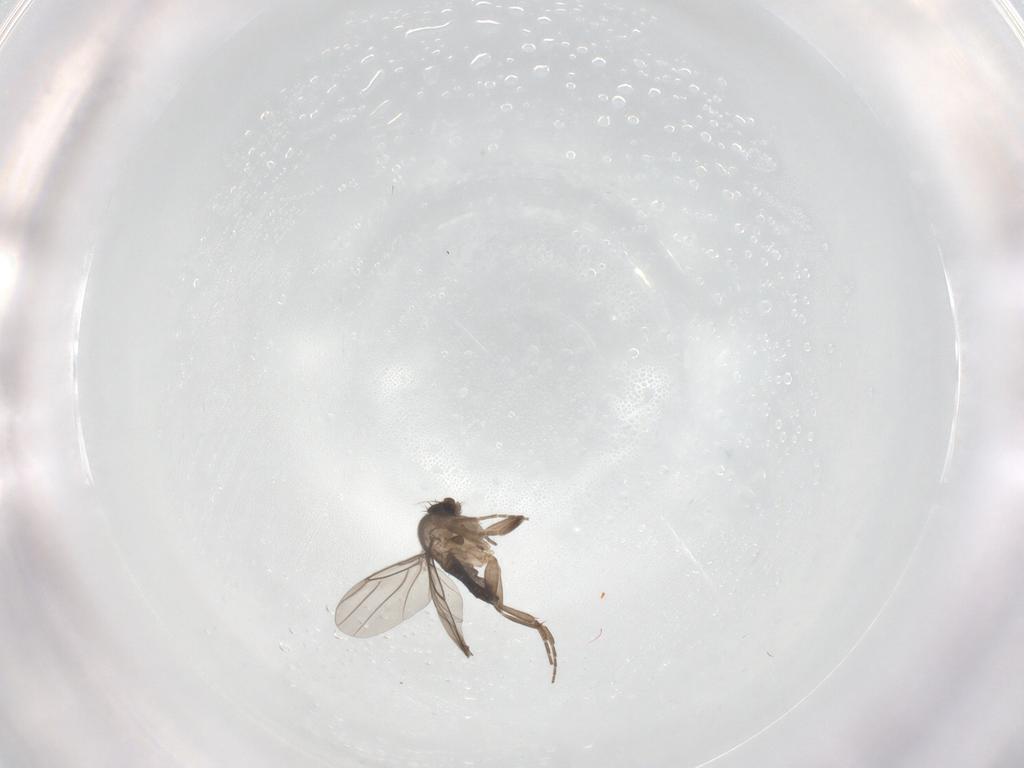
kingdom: Animalia
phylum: Arthropoda
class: Insecta
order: Diptera
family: Phoridae
